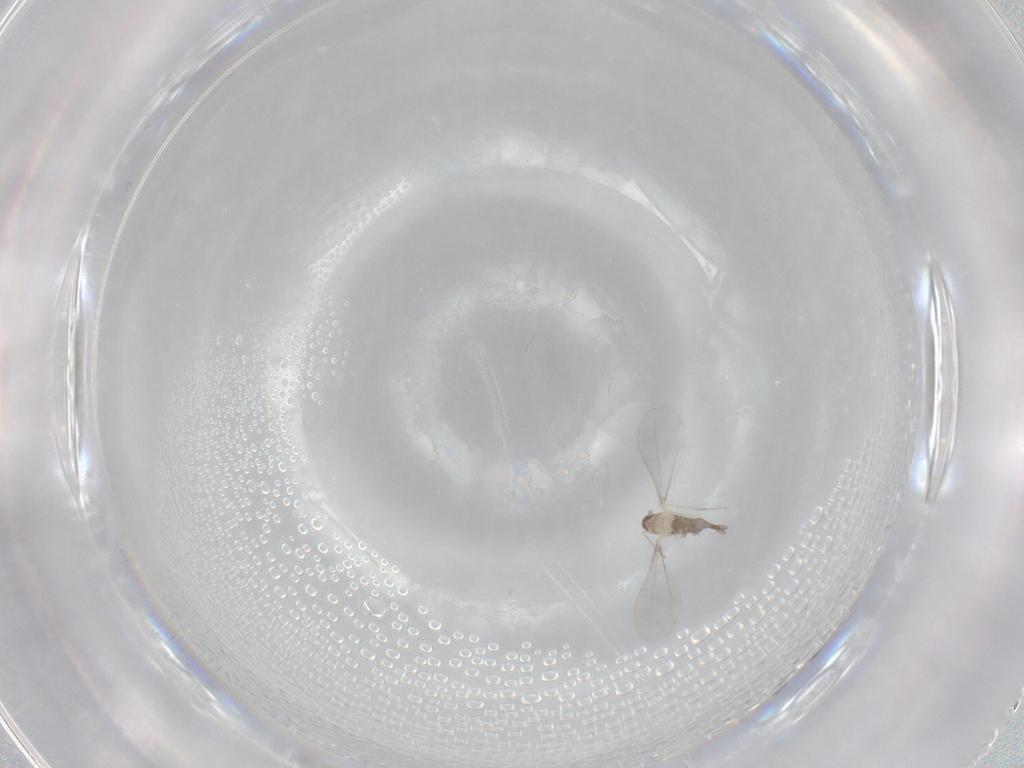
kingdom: Animalia
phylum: Arthropoda
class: Insecta
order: Diptera
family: Cecidomyiidae
